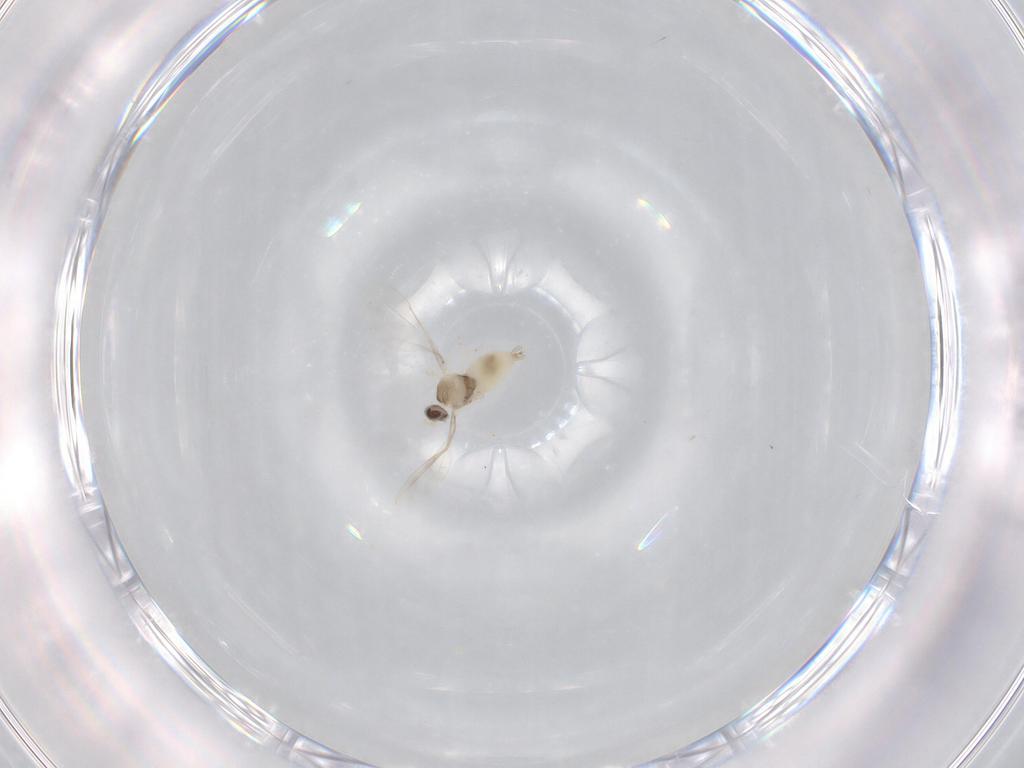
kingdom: Animalia
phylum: Arthropoda
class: Insecta
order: Diptera
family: Cecidomyiidae
